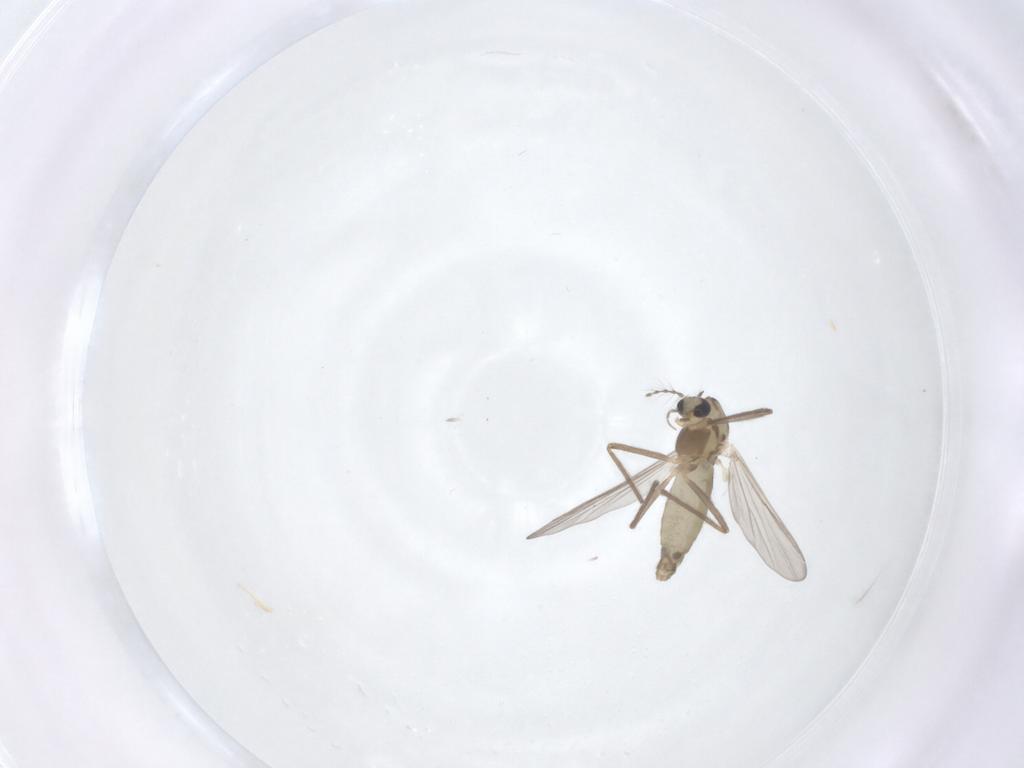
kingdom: Animalia
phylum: Arthropoda
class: Insecta
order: Diptera
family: Chironomidae
